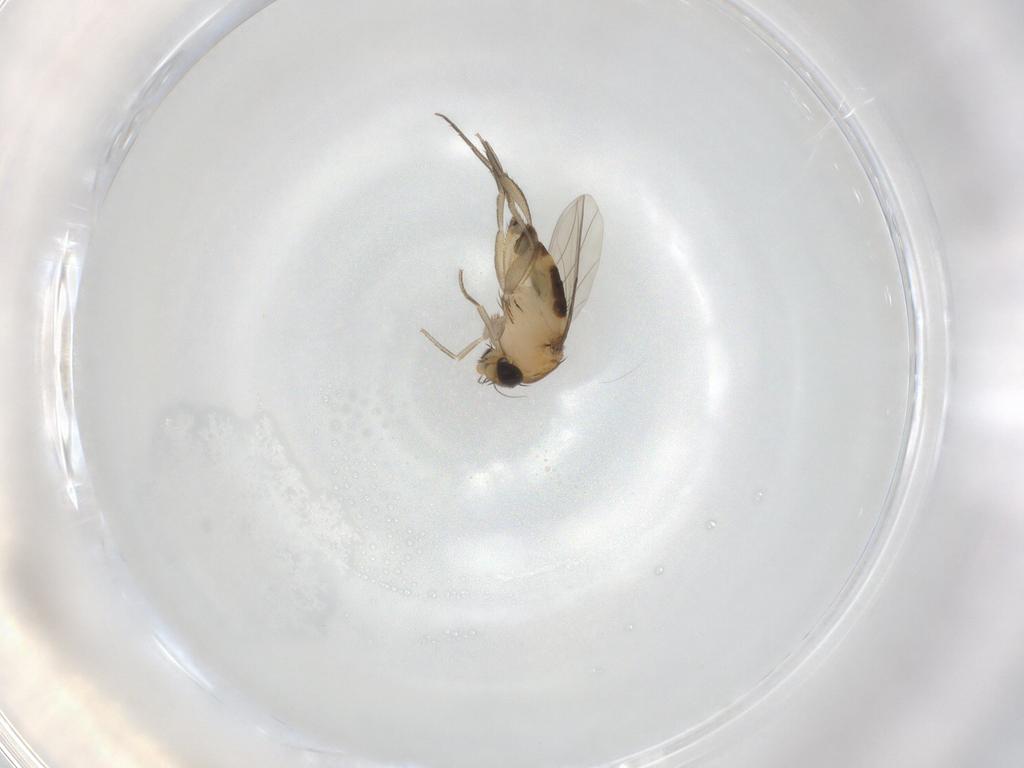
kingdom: Animalia
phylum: Arthropoda
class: Insecta
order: Diptera
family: Phoridae
